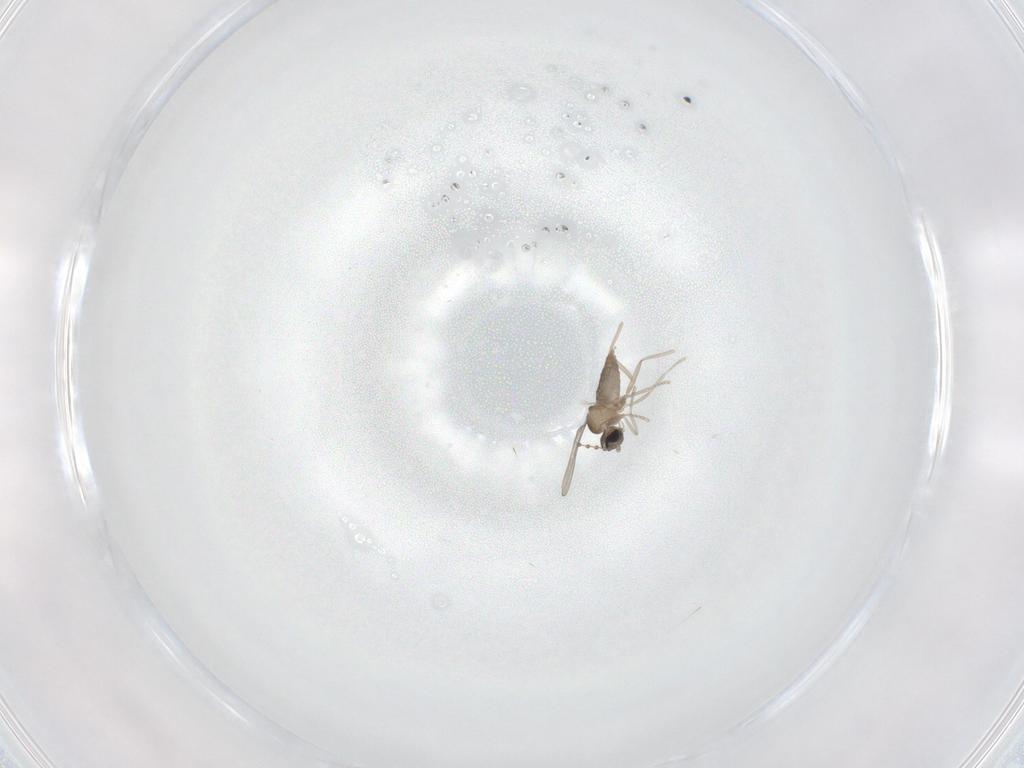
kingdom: Animalia
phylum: Arthropoda
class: Insecta
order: Diptera
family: Cecidomyiidae
